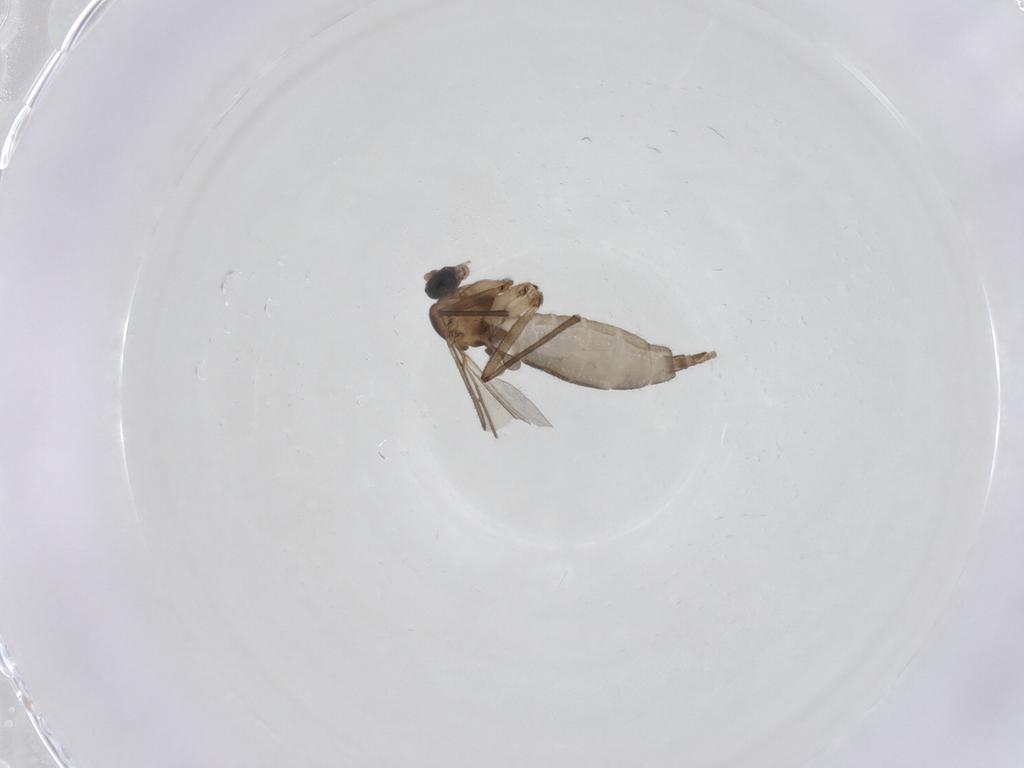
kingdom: Animalia
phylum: Arthropoda
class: Insecta
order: Diptera
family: Sciaridae
